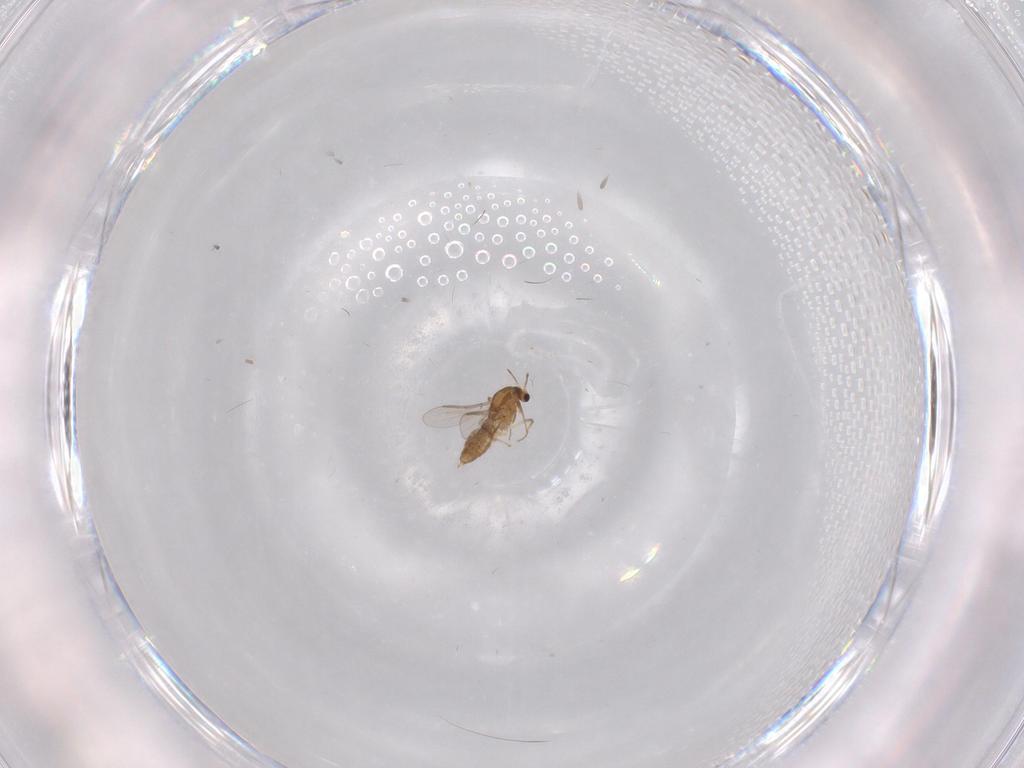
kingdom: Animalia
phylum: Arthropoda
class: Insecta
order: Diptera
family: Chironomidae
